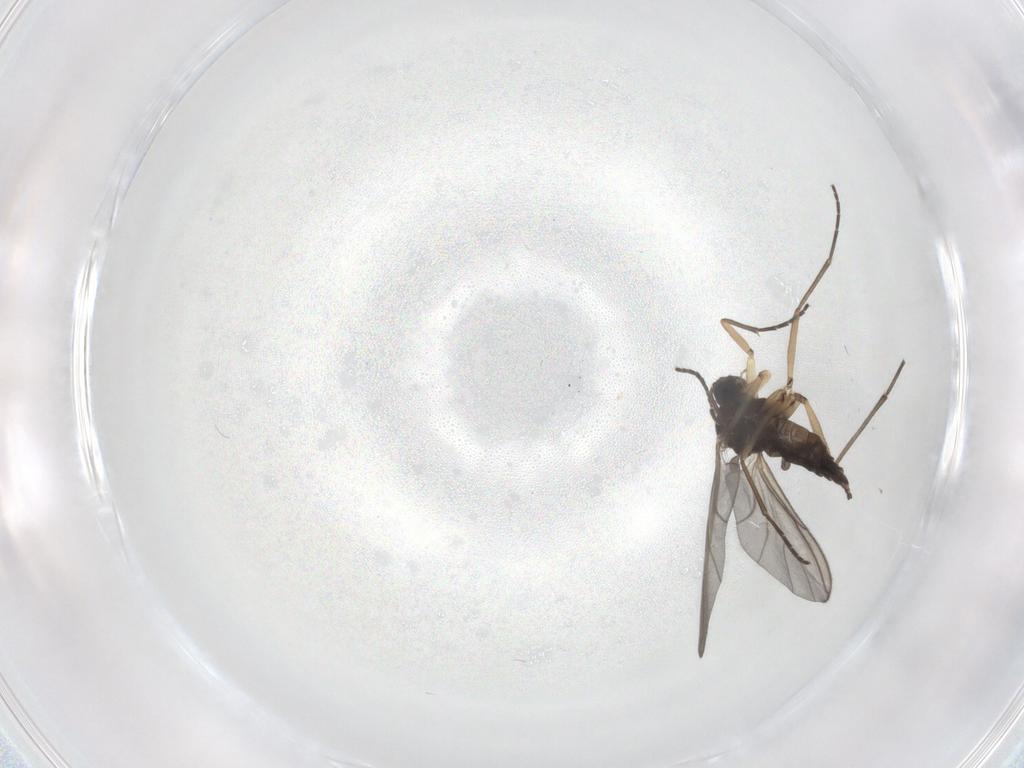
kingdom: Animalia
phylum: Arthropoda
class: Insecta
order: Diptera
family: Sciaridae
